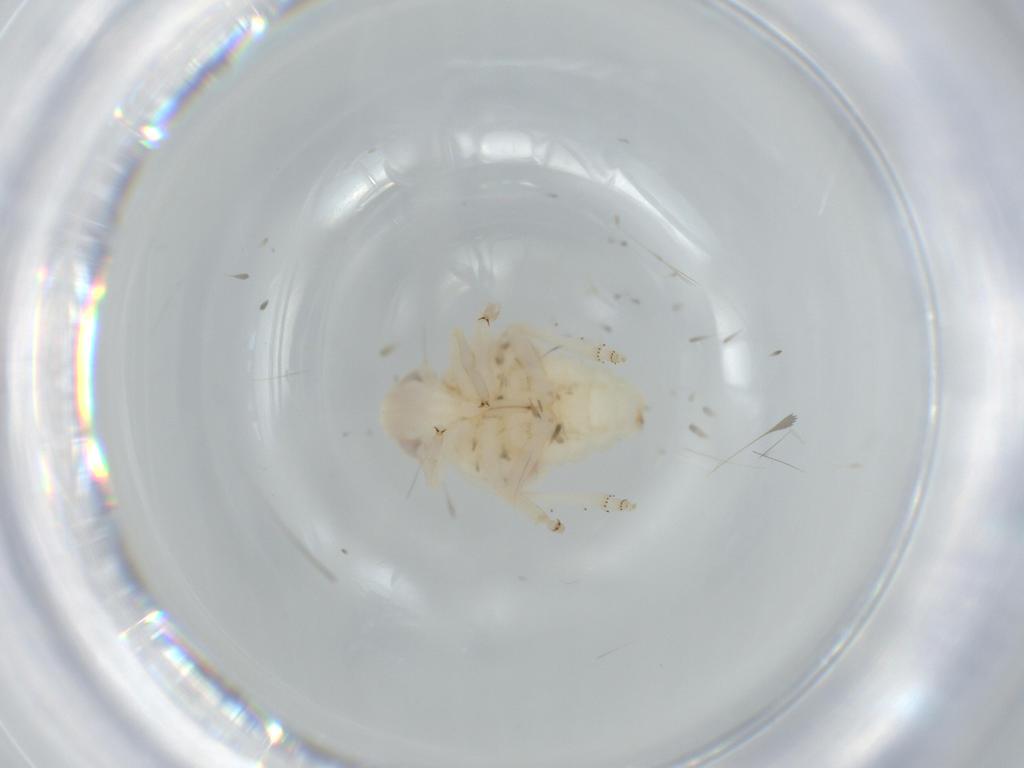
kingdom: Animalia
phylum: Arthropoda
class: Insecta
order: Hemiptera
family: Nogodinidae
